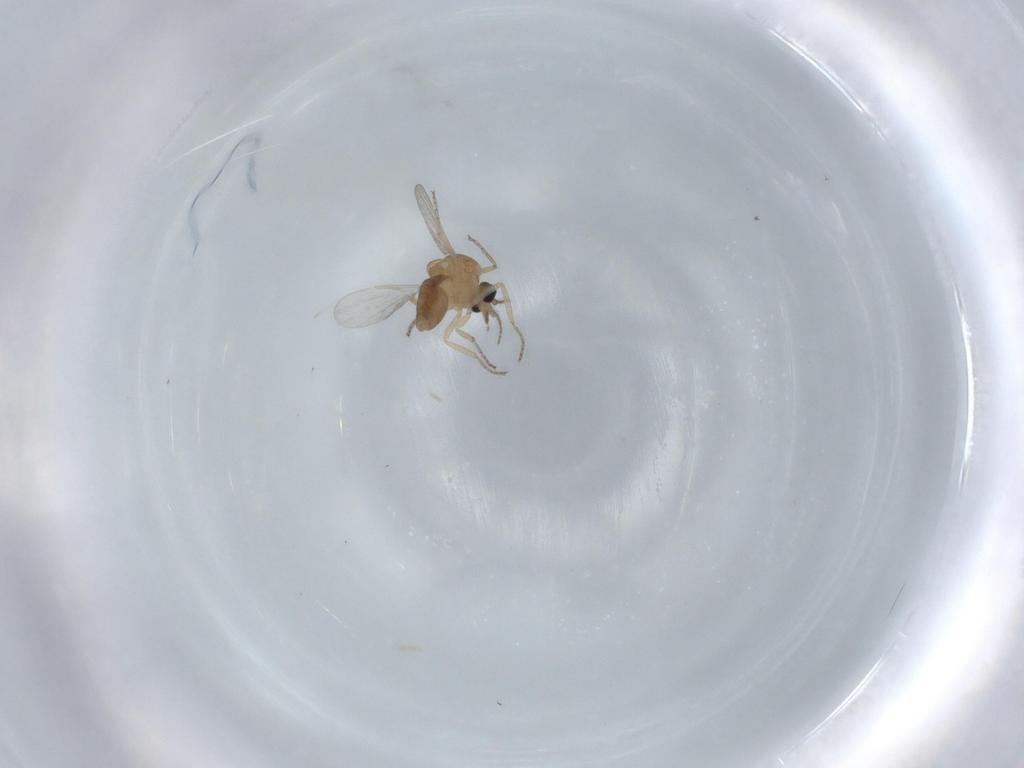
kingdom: Animalia
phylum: Arthropoda
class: Insecta
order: Diptera
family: Ceratopogonidae
